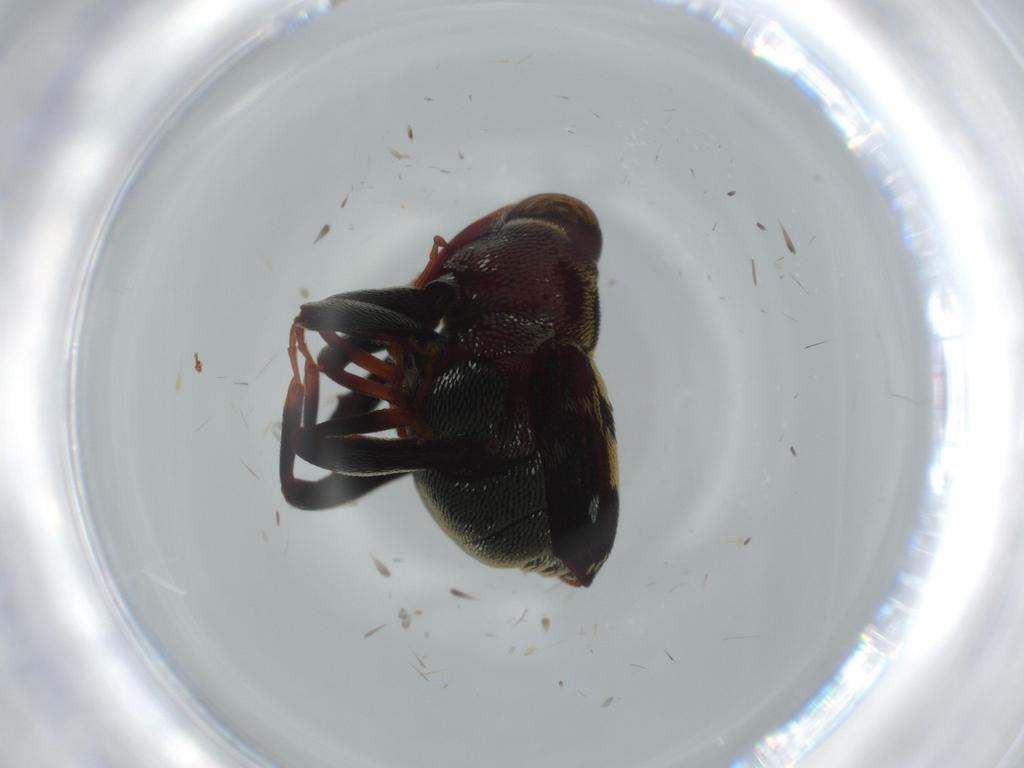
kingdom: Animalia
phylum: Arthropoda
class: Insecta
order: Coleoptera
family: Curculionidae
